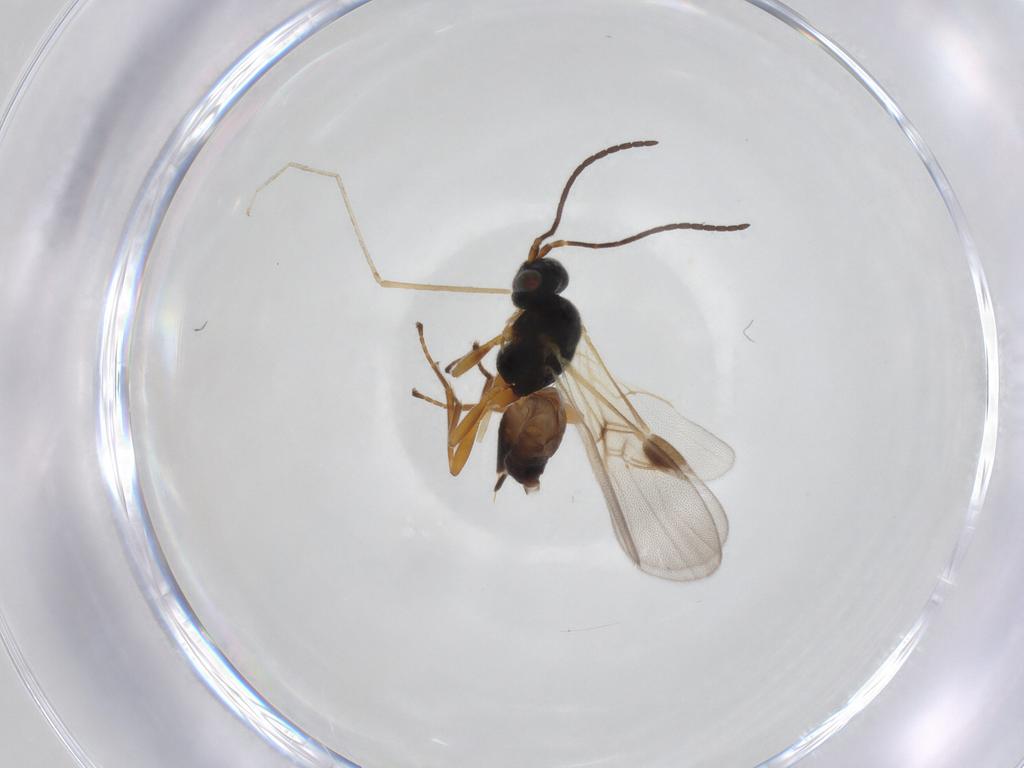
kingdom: Animalia
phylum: Arthropoda
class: Insecta
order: Hymenoptera
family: Braconidae
